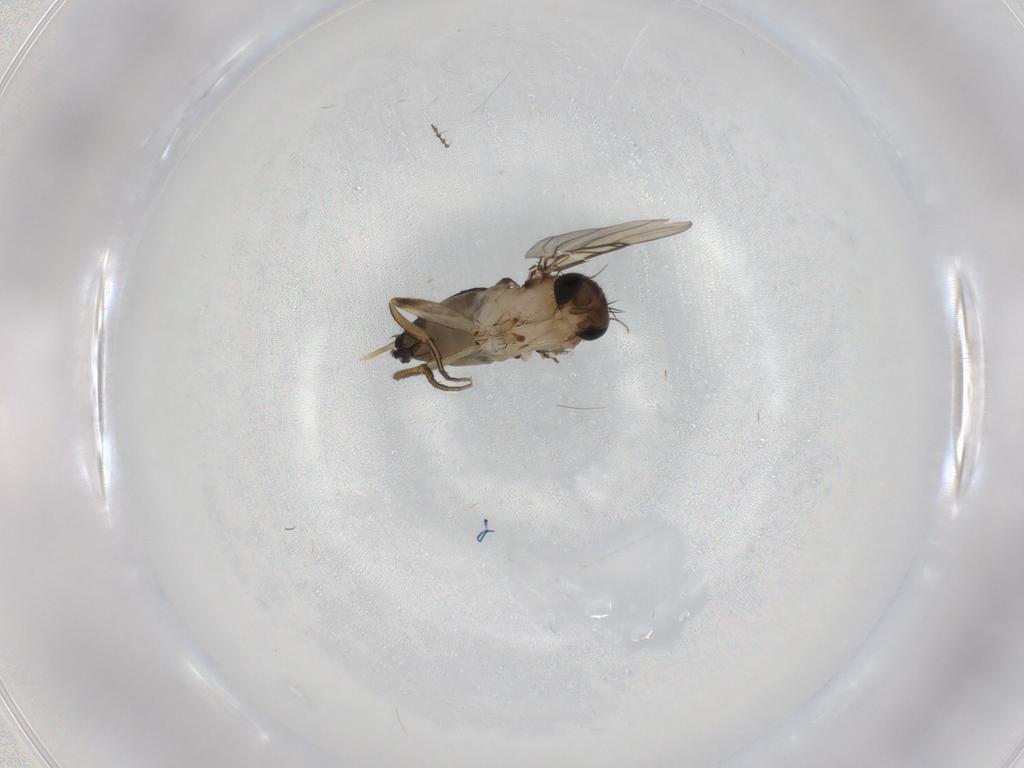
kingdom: Animalia
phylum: Arthropoda
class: Insecta
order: Diptera
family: Phoridae
